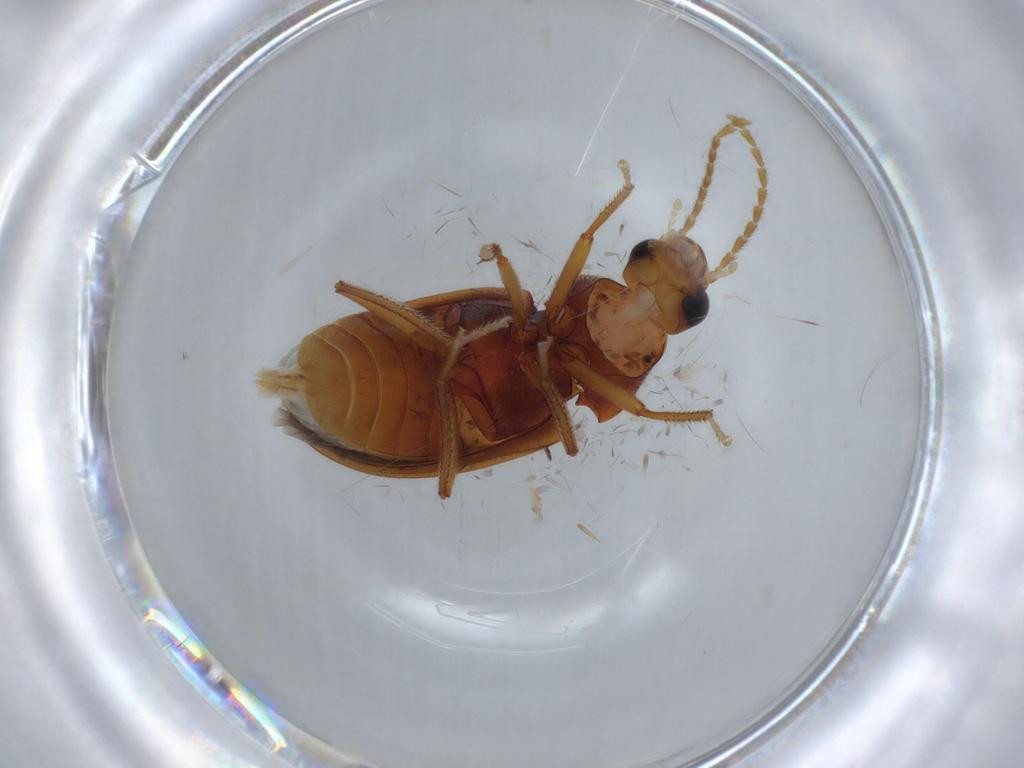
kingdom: Animalia
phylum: Arthropoda
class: Insecta
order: Coleoptera
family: Ptilodactylidae
